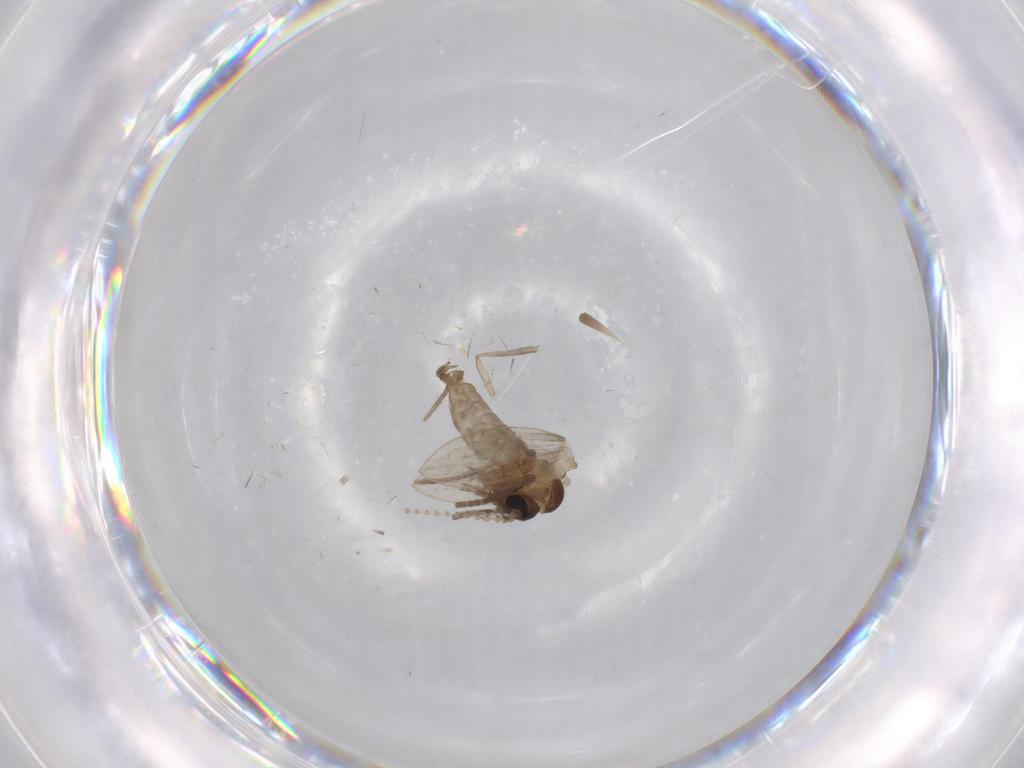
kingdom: Animalia
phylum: Arthropoda
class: Insecta
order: Diptera
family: Psychodidae
